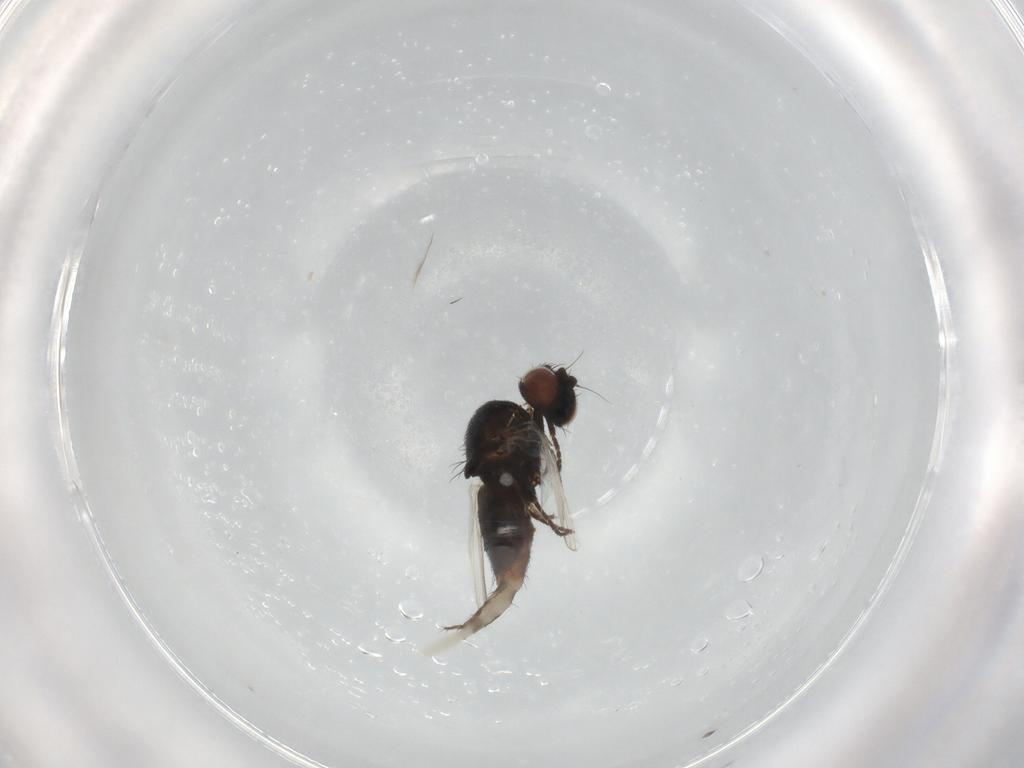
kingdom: Animalia
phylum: Arthropoda
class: Insecta
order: Diptera
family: Milichiidae
